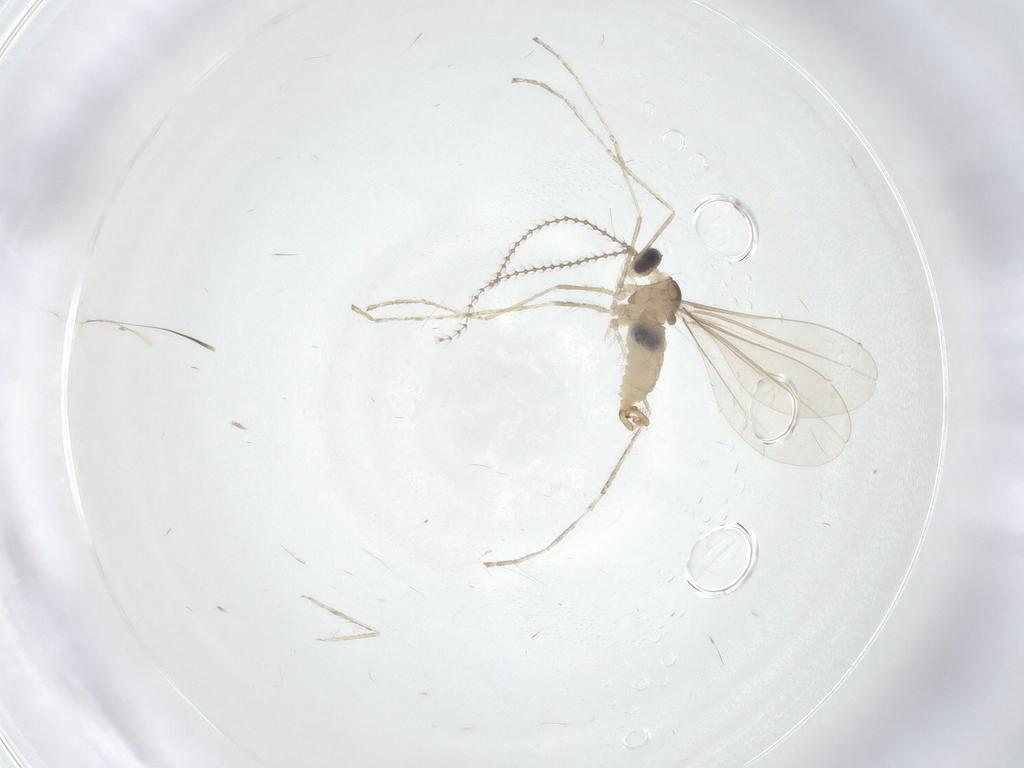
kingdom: Animalia
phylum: Arthropoda
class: Insecta
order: Diptera
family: Cecidomyiidae
